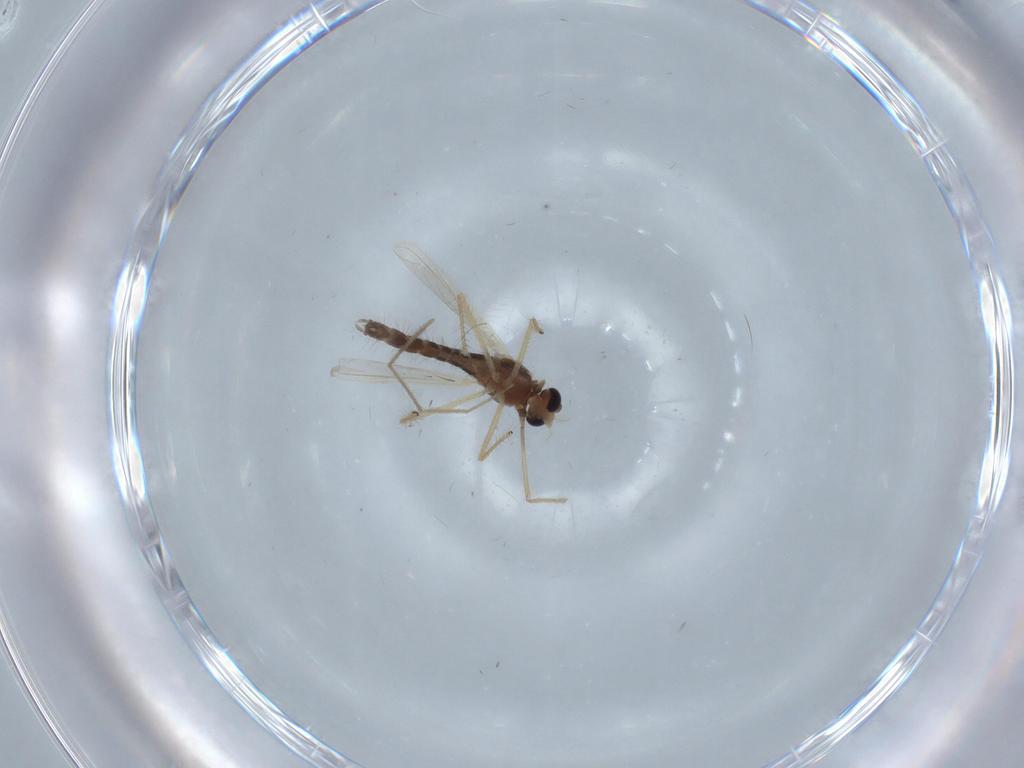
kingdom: Animalia
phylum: Arthropoda
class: Insecta
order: Diptera
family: Chironomidae
